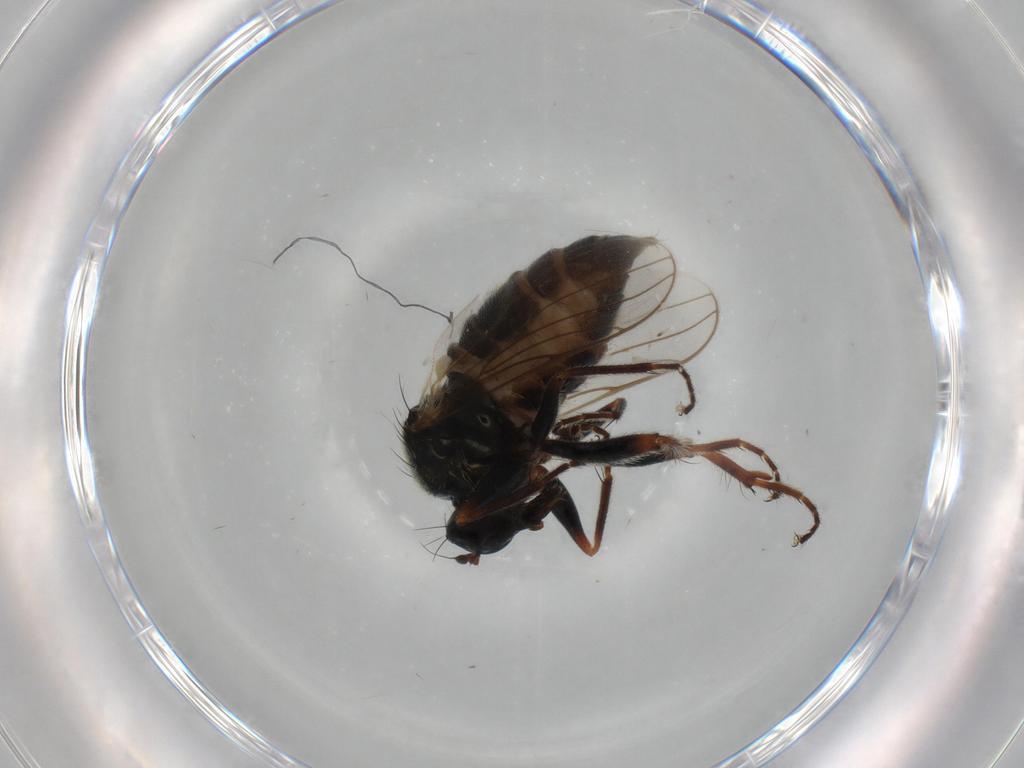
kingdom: Animalia
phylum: Arthropoda
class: Insecta
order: Diptera
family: Hybotidae
